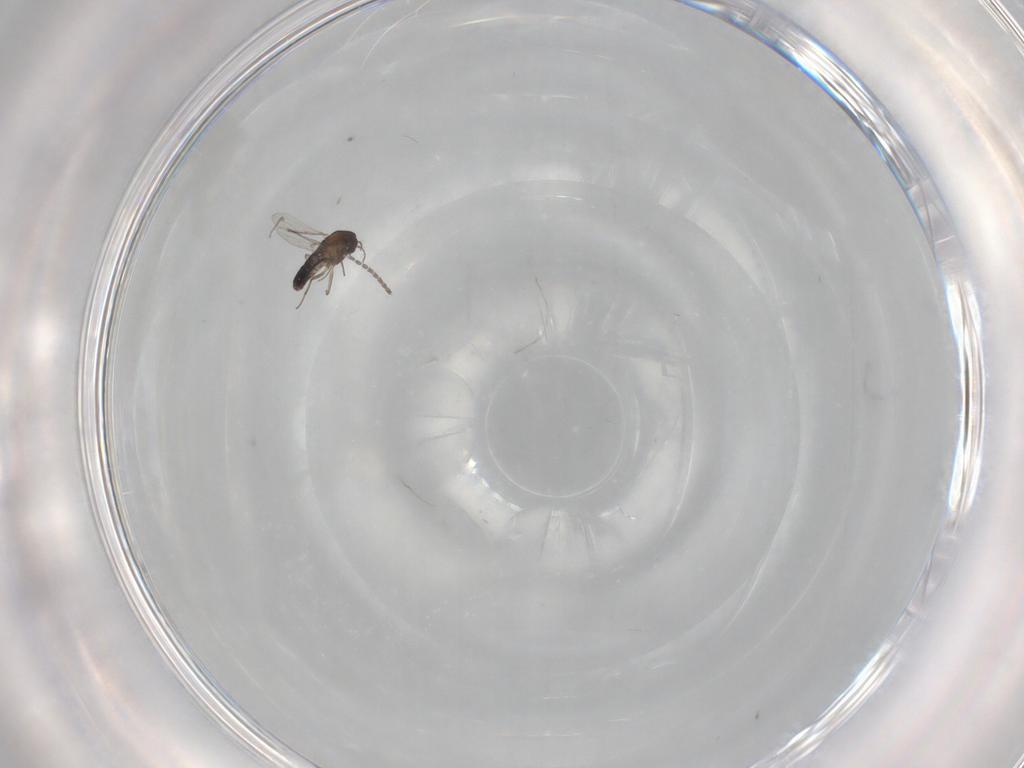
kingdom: Animalia
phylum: Arthropoda
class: Insecta
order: Diptera
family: Chironomidae
